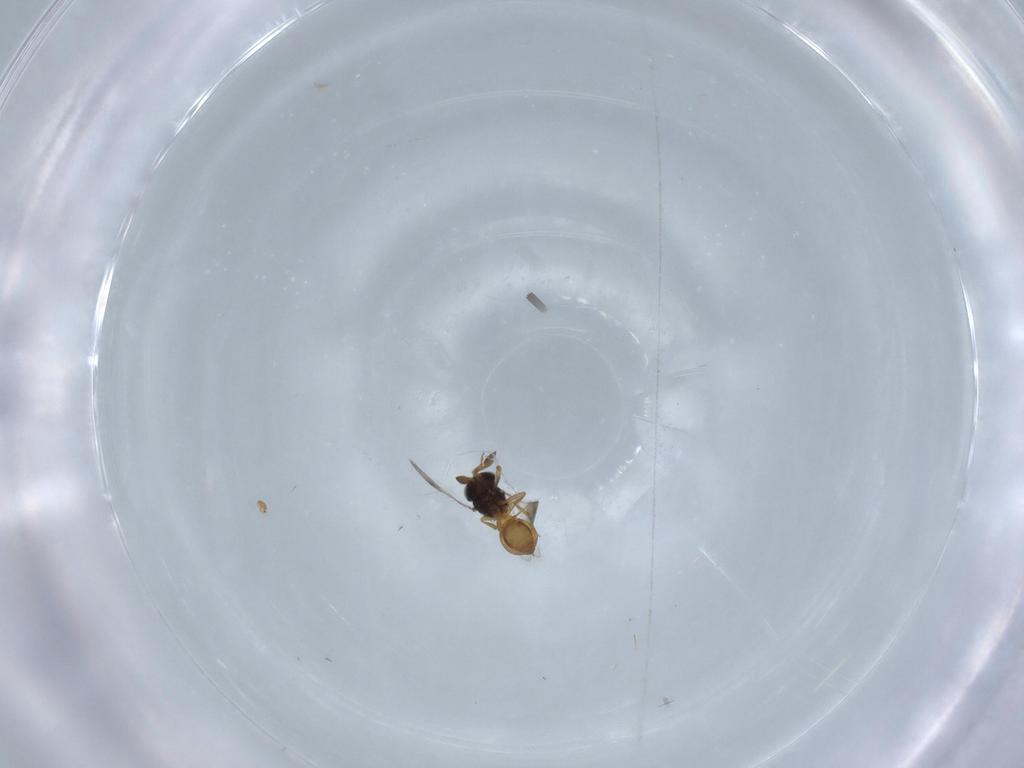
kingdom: Animalia
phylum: Arthropoda
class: Insecta
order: Hymenoptera
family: Scelionidae
